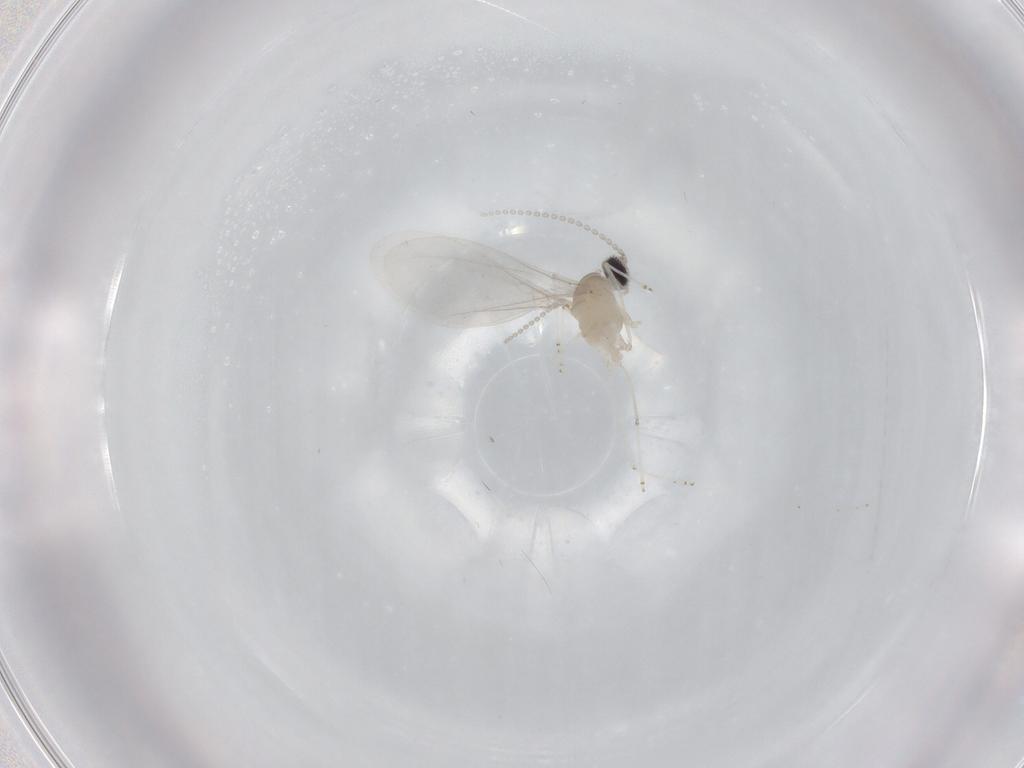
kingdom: Animalia
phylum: Arthropoda
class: Insecta
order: Diptera
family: Cecidomyiidae
